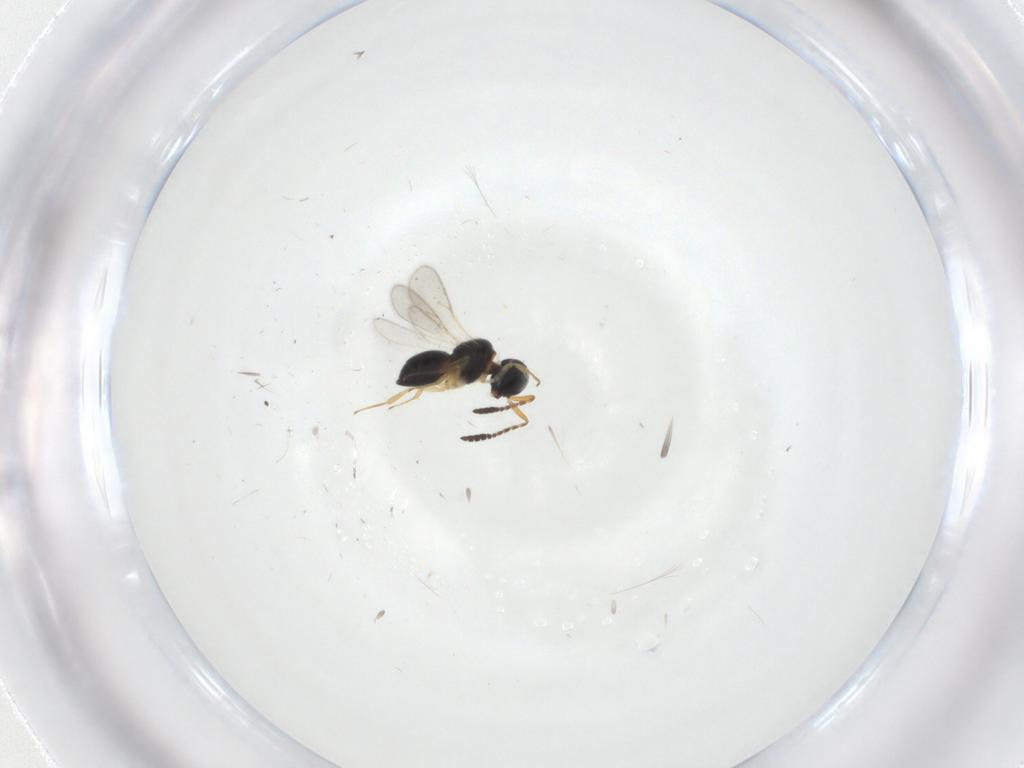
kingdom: Animalia
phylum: Arthropoda
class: Insecta
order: Hymenoptera
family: Scelionidae
